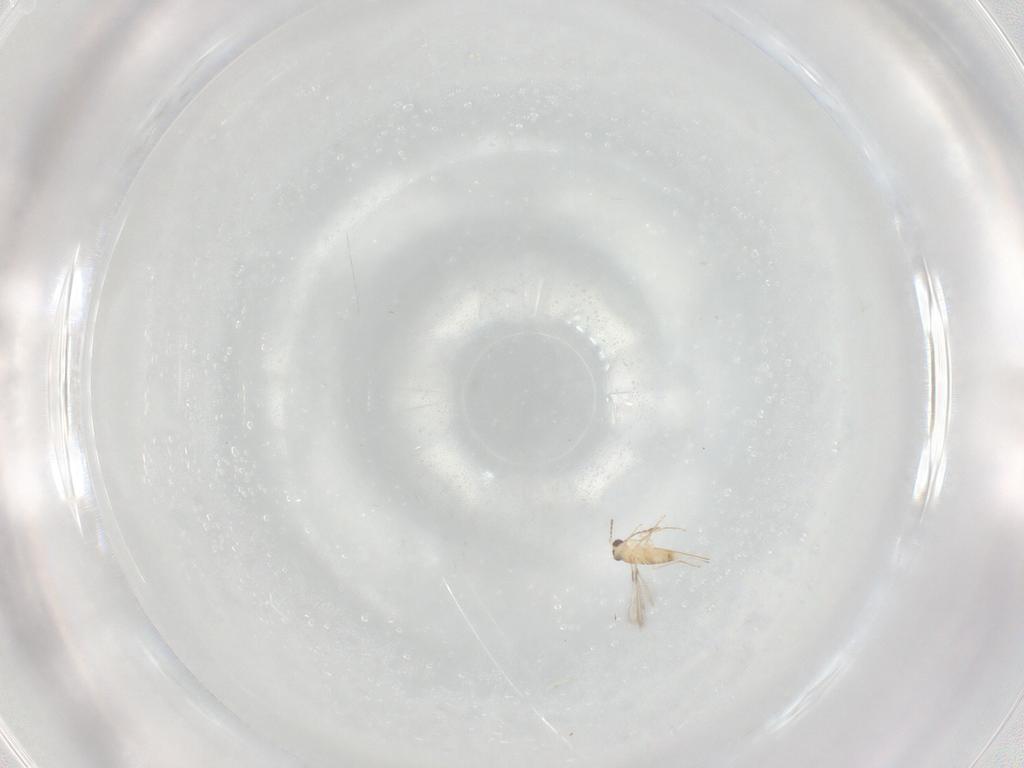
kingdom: Animalia
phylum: Arthropoda
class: Insecta
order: Hymenoptera
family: Mymaridae
